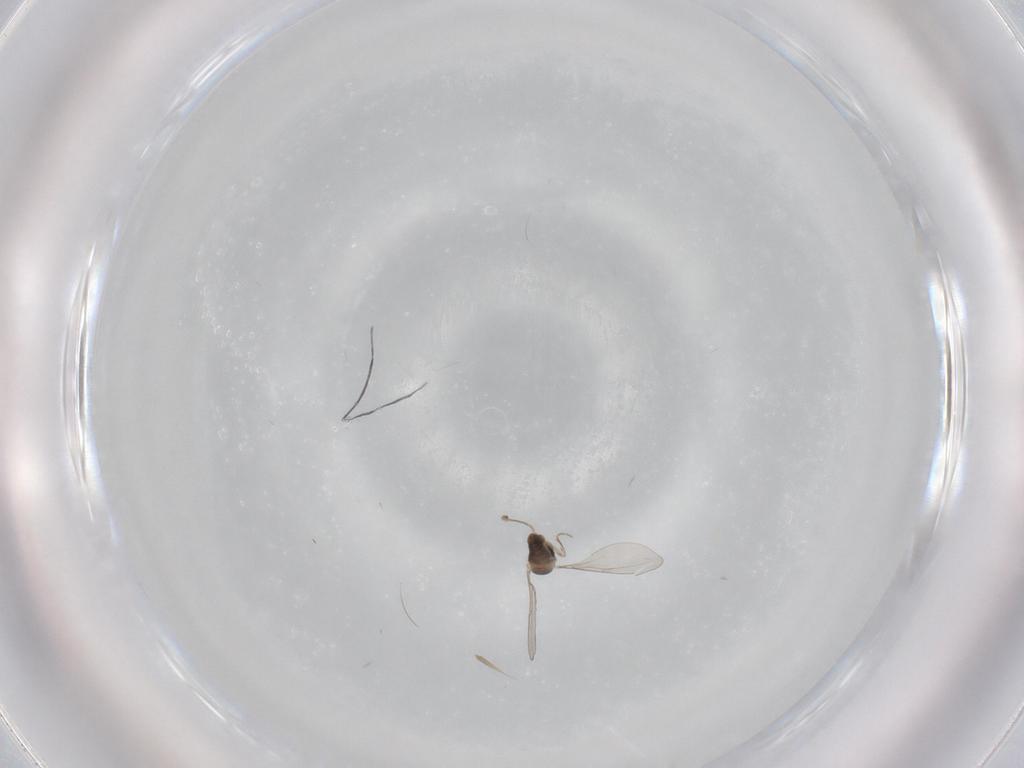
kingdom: Animalia
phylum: Arthropoda
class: Insecta
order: Diptera
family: Cecidomyiidae
